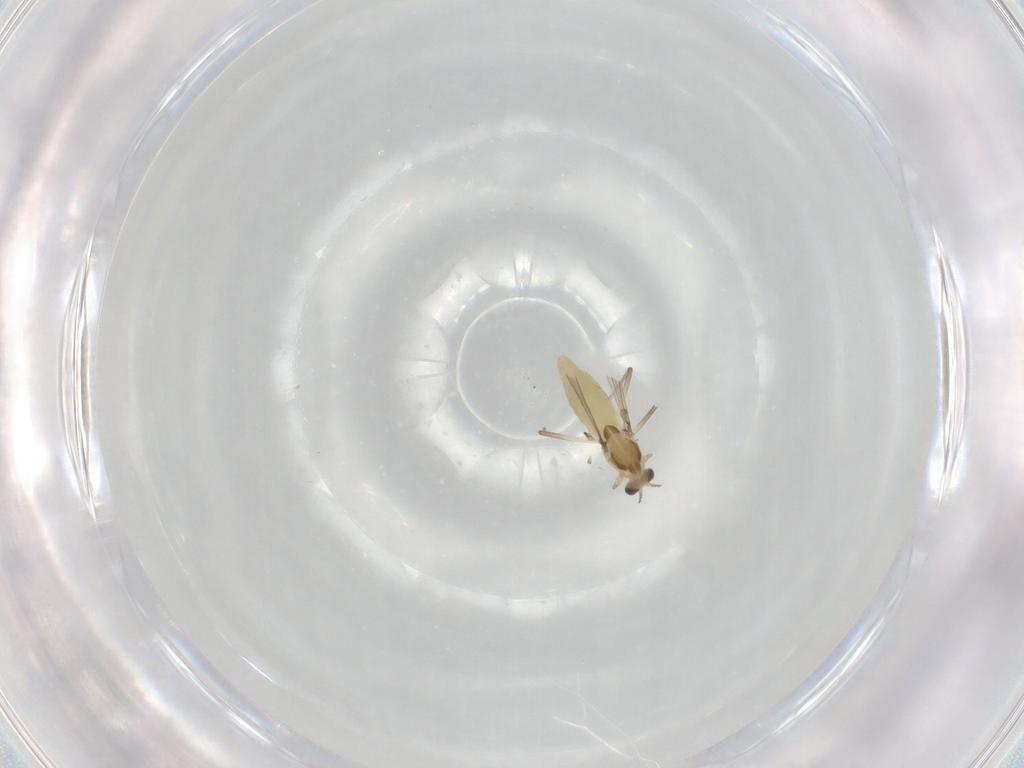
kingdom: Animalia
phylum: Arthropoda
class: Insecta
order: Diptera
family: Chironomidae
